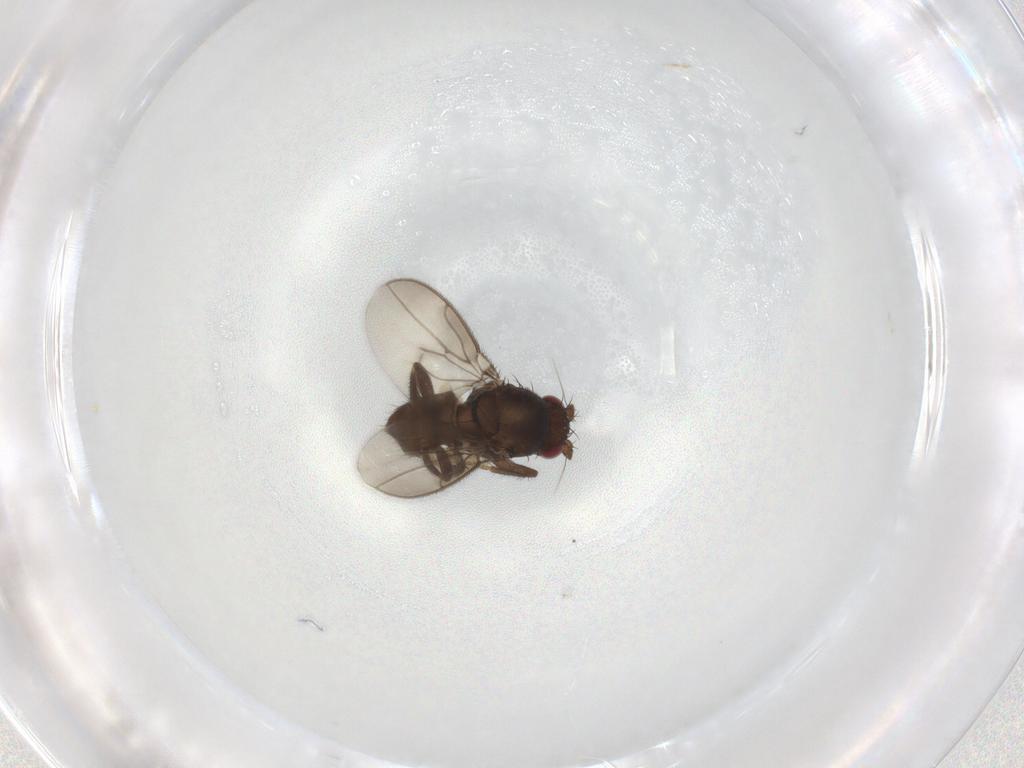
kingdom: Animalia
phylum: Arthropoda
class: Insecta
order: Diptera
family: Sphaeroceridae
